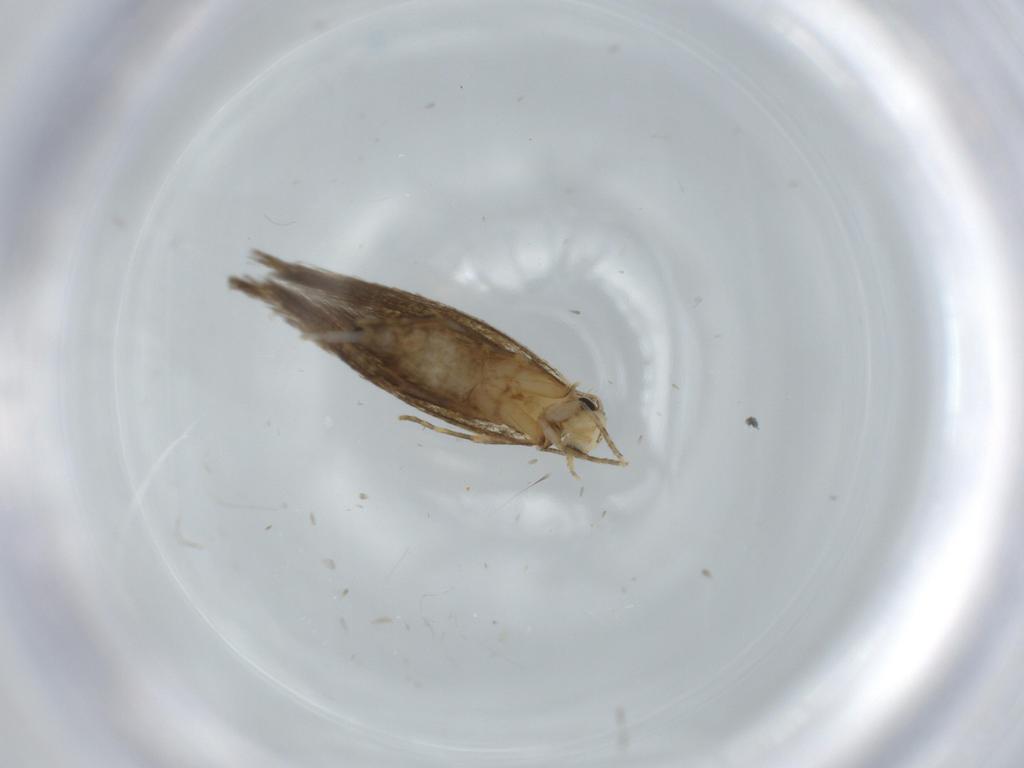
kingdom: Animalia
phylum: Arthropoda
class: Insecta
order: Lepidoptera
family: Tineidae
